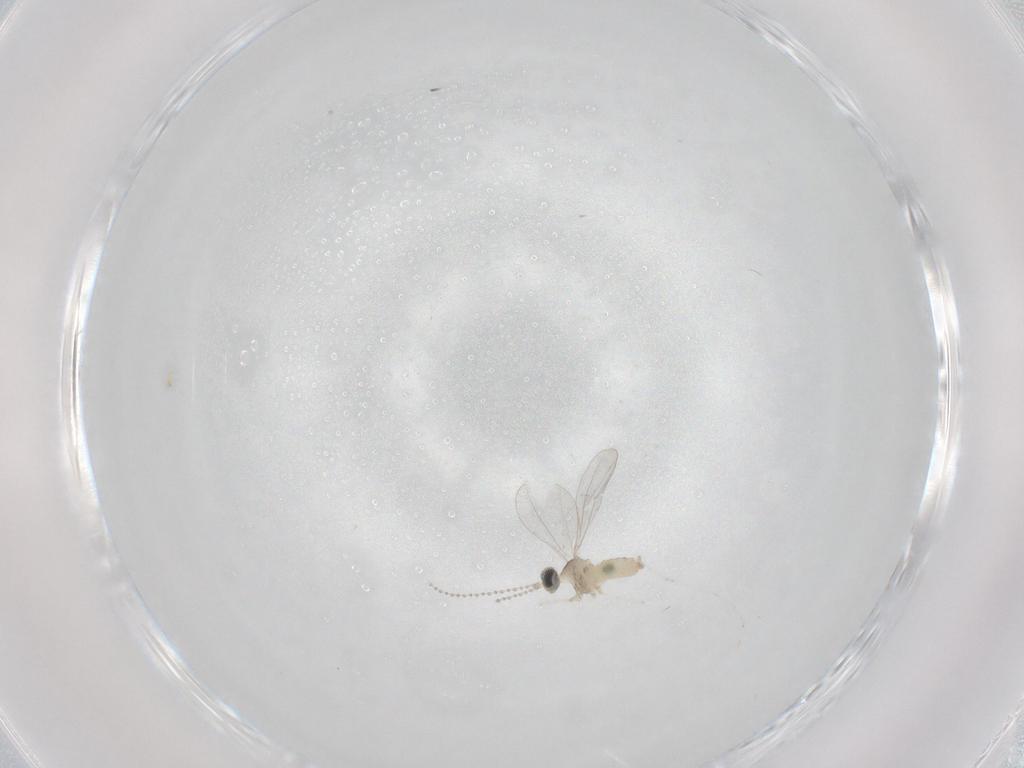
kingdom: Animalia
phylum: Arthropoda
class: Insecta
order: Diptera
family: Cecidomyiidae
